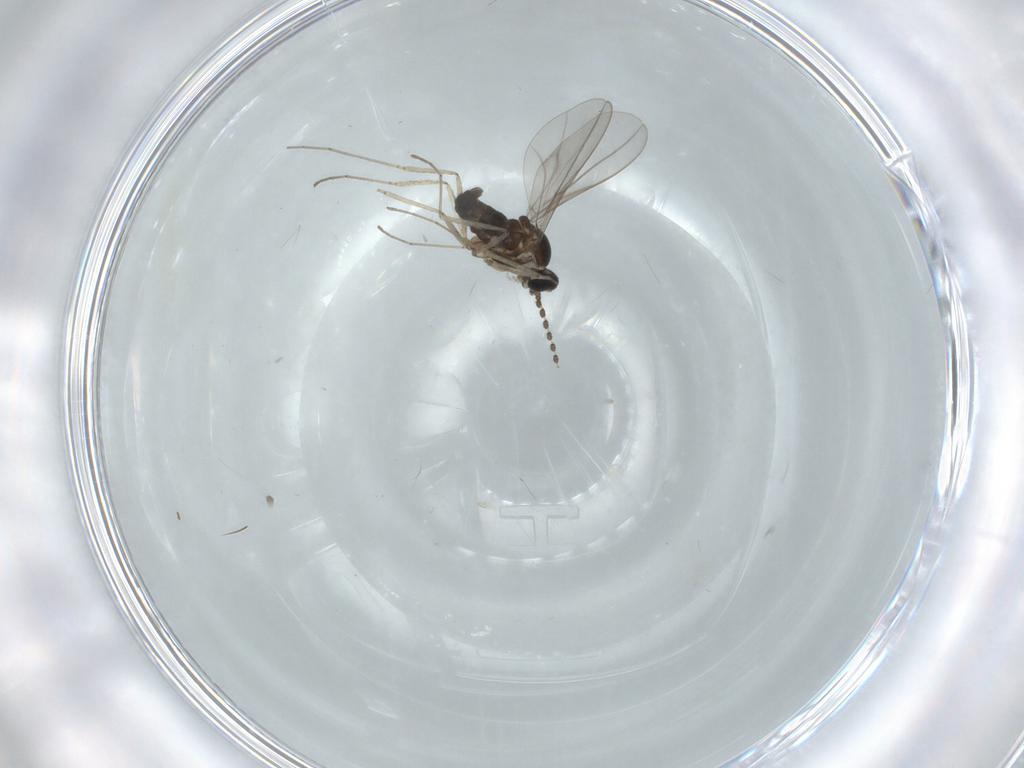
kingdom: Animalia
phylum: Arthropoda
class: Insecta
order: Diptera
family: Cecidomyiidae
